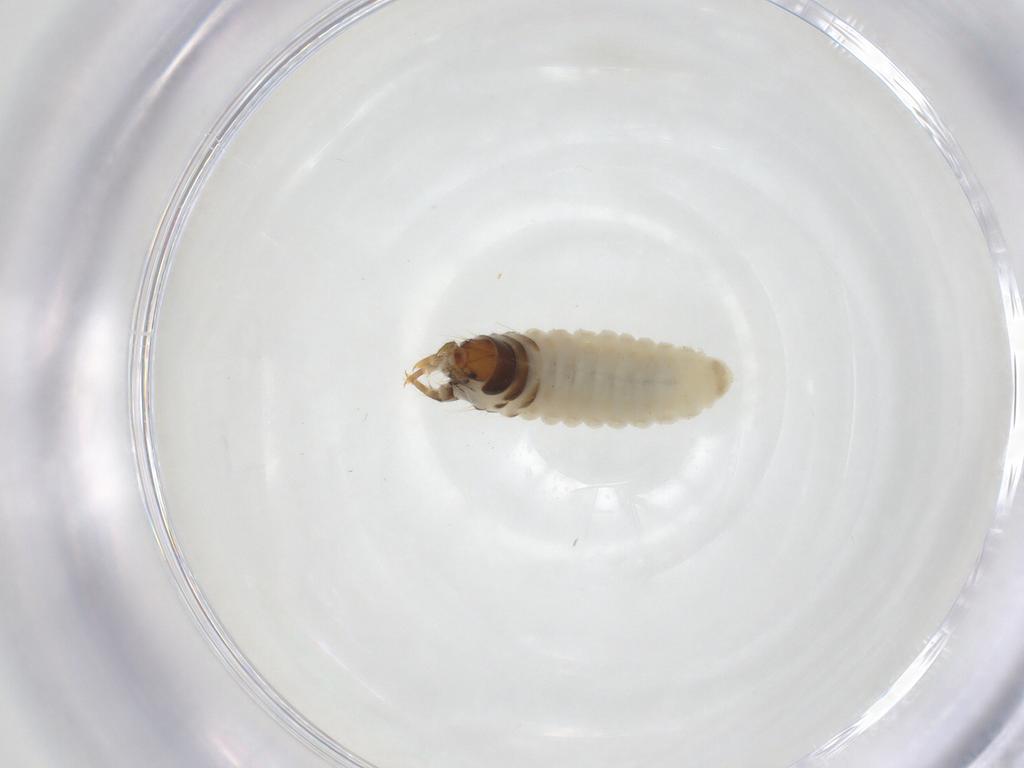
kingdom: Animalia
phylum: Arthropoda
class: Insecta
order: Lepidoptera
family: Psychidae
